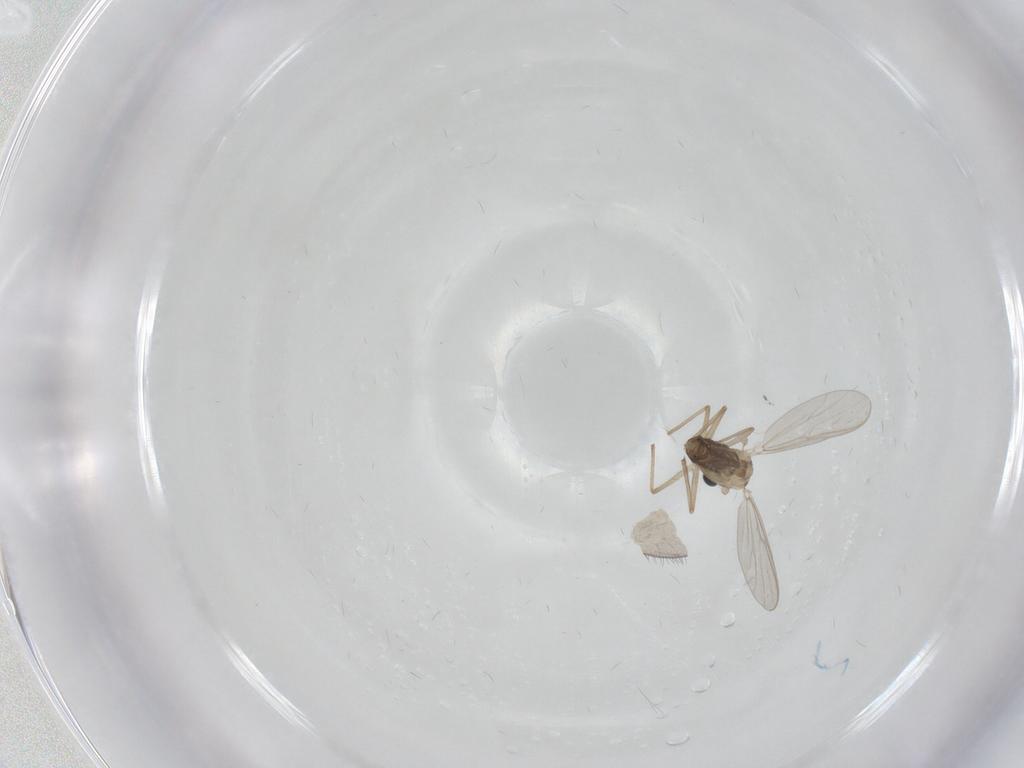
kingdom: Animalia
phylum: Arthropoda
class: Insecta
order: Diptera
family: Chironomidae
